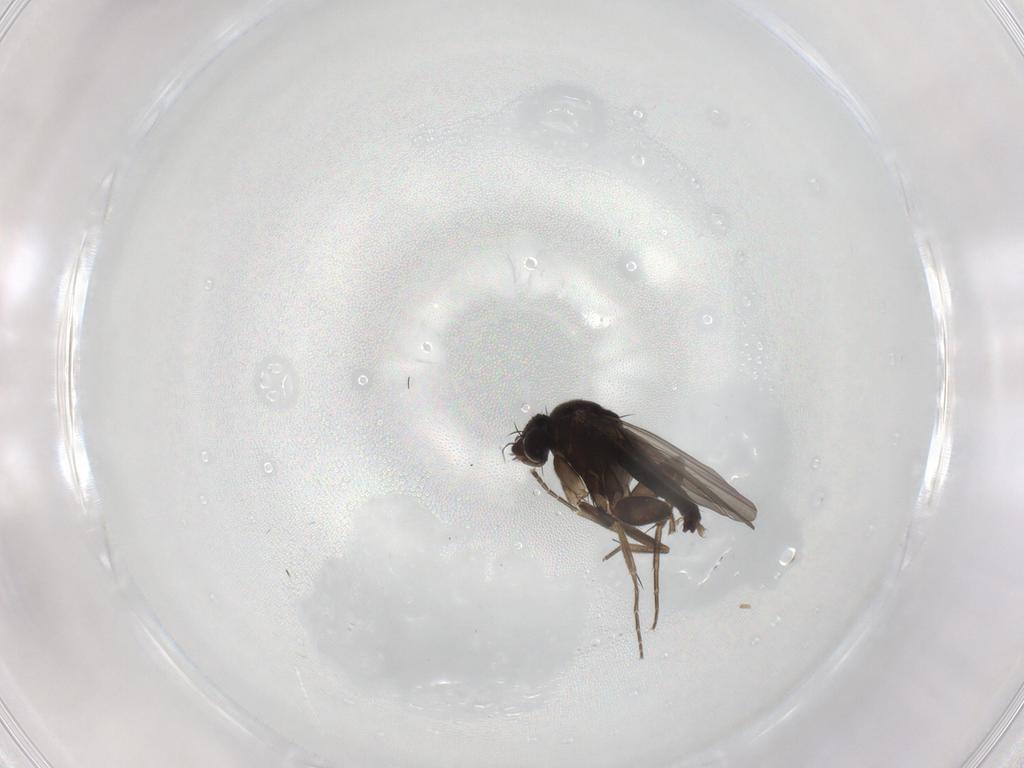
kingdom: Animalia
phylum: Arthropoda
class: Insecta
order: Diptera
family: Phoridae
